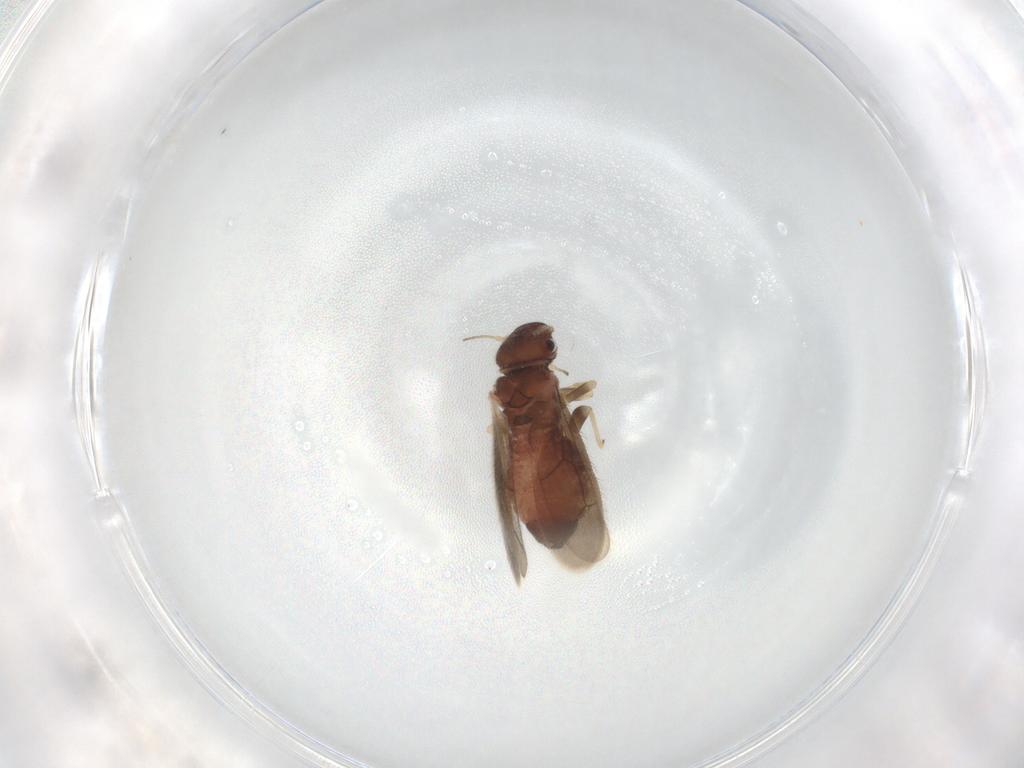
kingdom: Animalia
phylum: Arthropoda
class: Insecta
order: Psocodea
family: Archipsocidae
